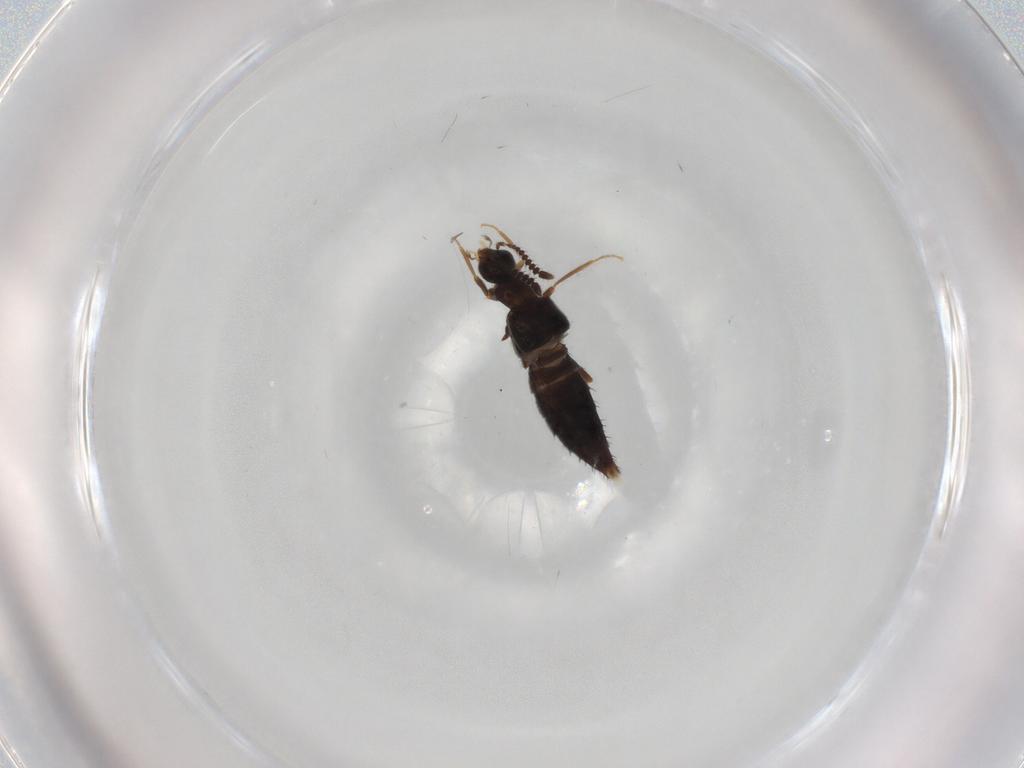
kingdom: Animalia
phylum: Arthropoda
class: Insecta
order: Coleoptera
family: Staphylinidae
